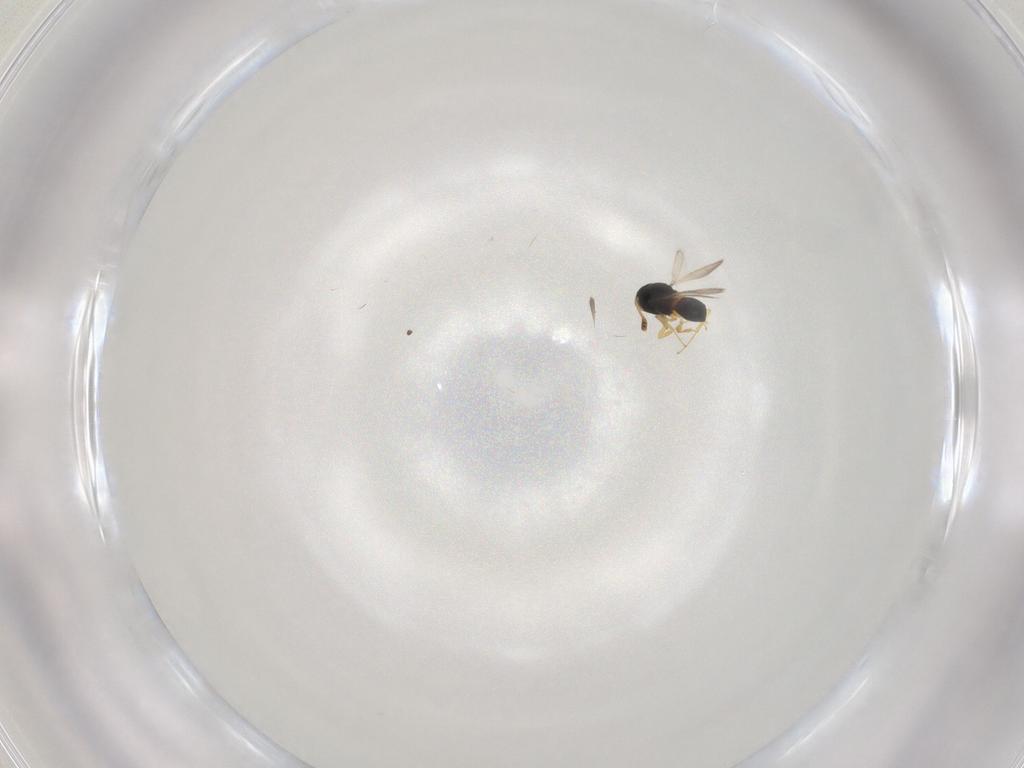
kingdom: Animalia
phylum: Arthropoda
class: Insecta
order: Hymenoptera
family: Scelionidae
